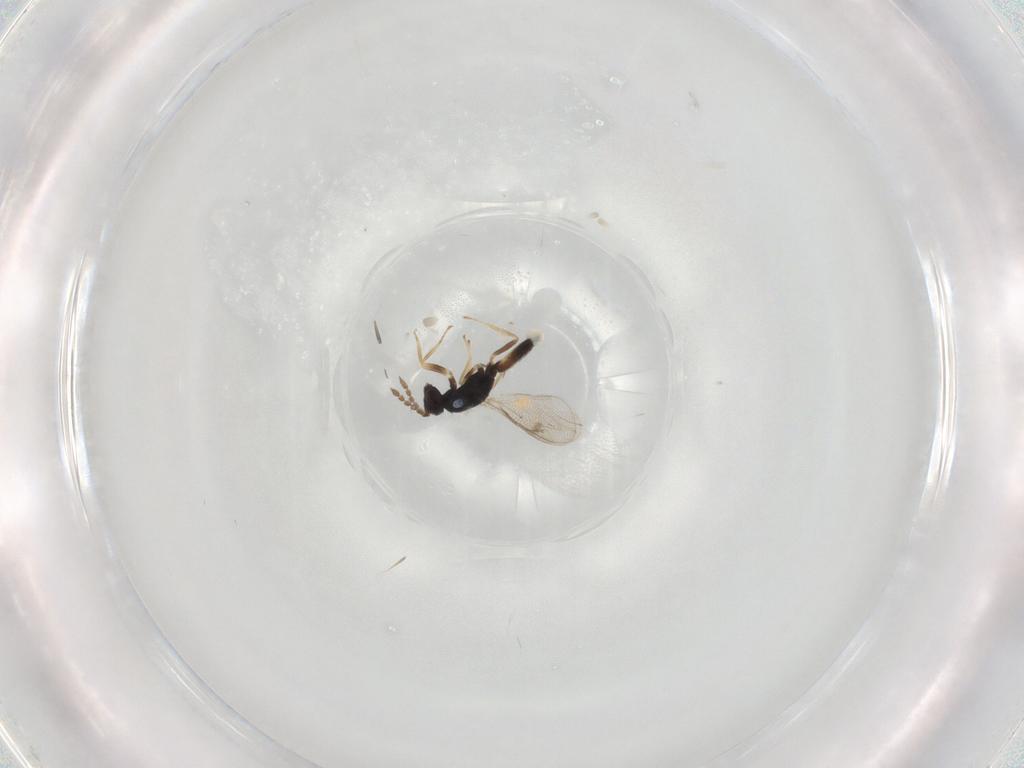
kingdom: Animalia
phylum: Arthropoda
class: Insecta
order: Hymenoptera
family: Eulophidae
